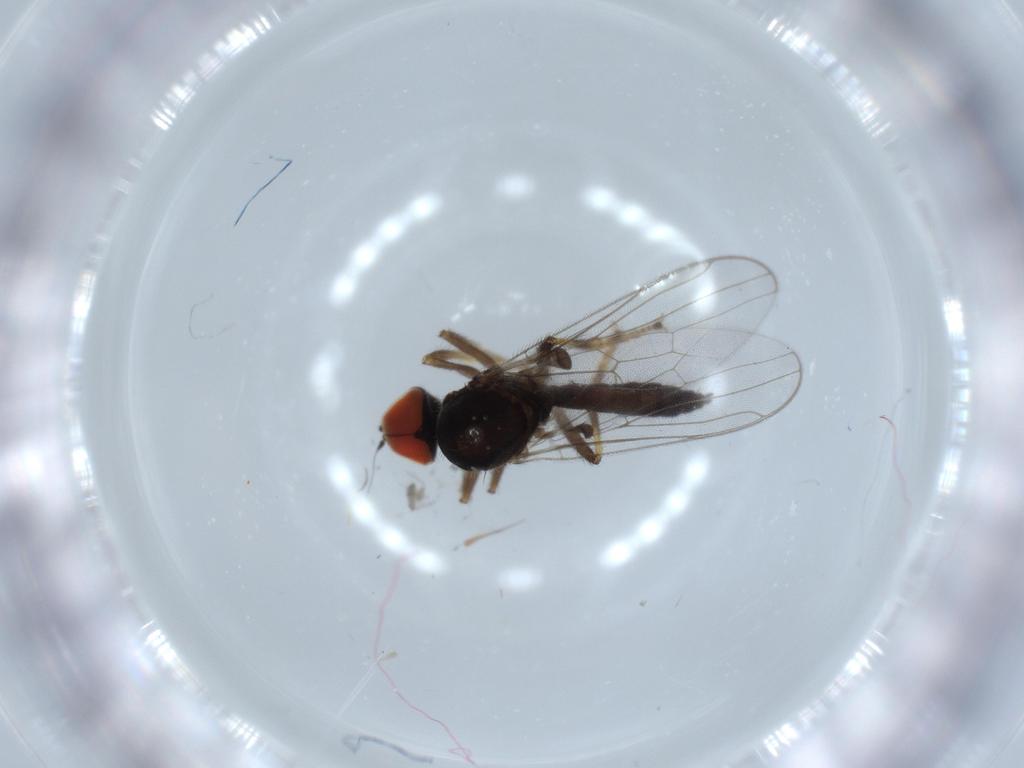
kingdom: Animalia
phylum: Arthropoda
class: Insecta
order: Diptera
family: Hybotidae
